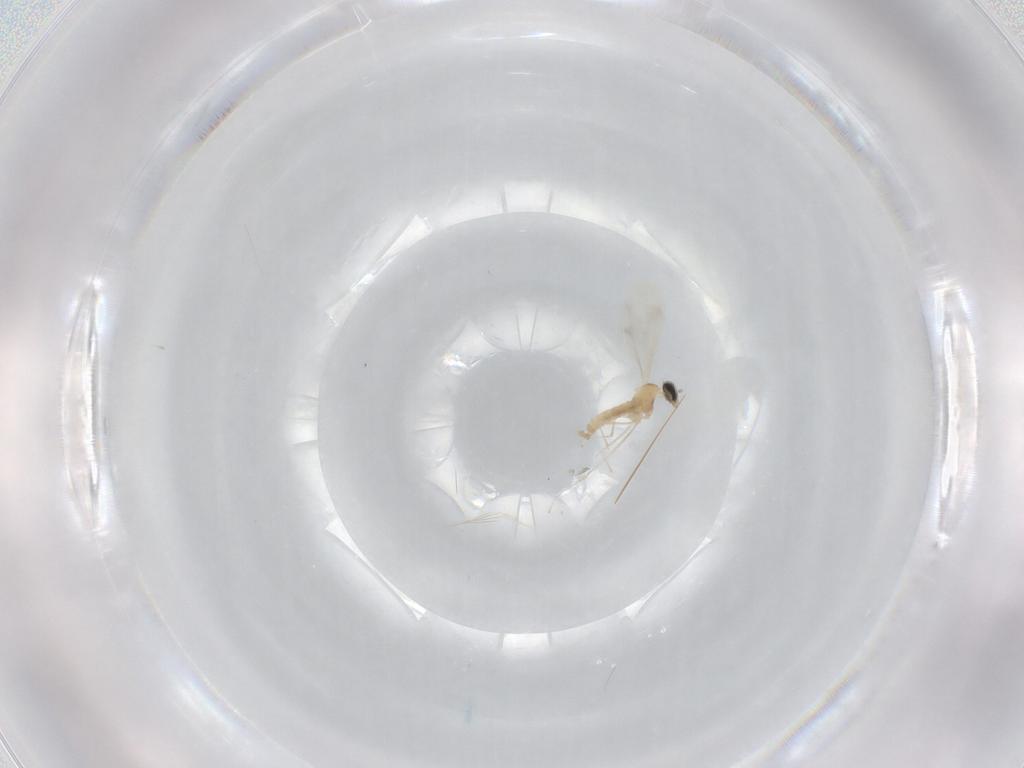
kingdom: Animalia
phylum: Arthropoda
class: Insecta
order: Diptera
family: Cecidomyiidae
